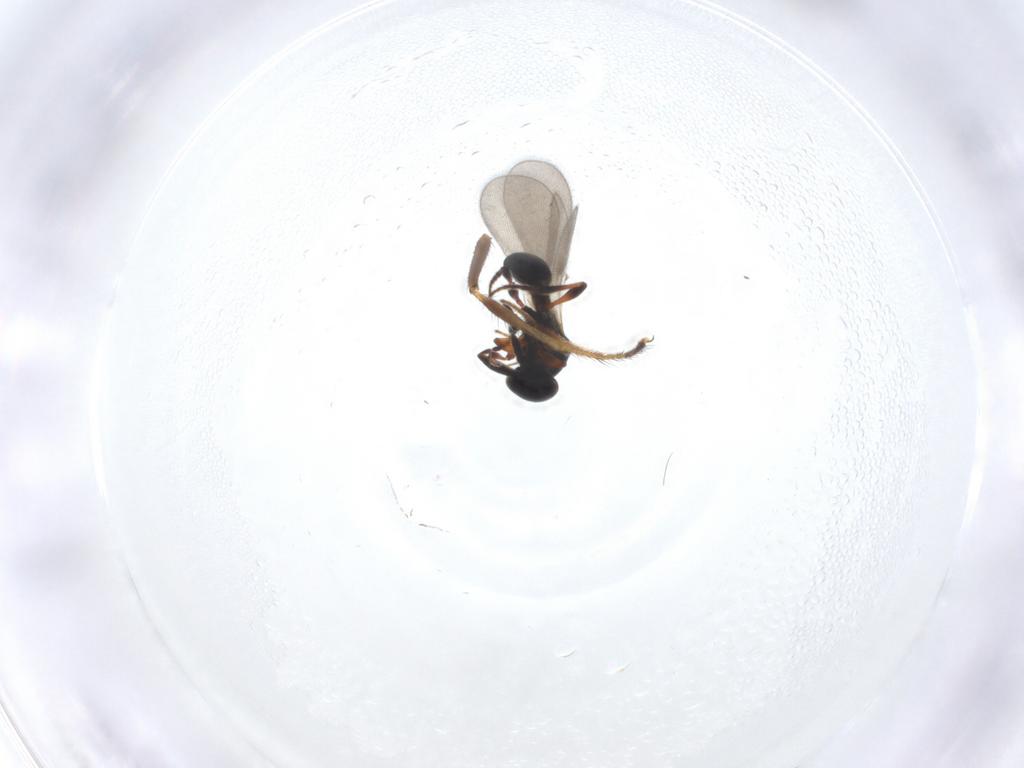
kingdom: Animalia
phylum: Arthropoda
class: Insecta
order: Hymenoptera
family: Platygastridae
